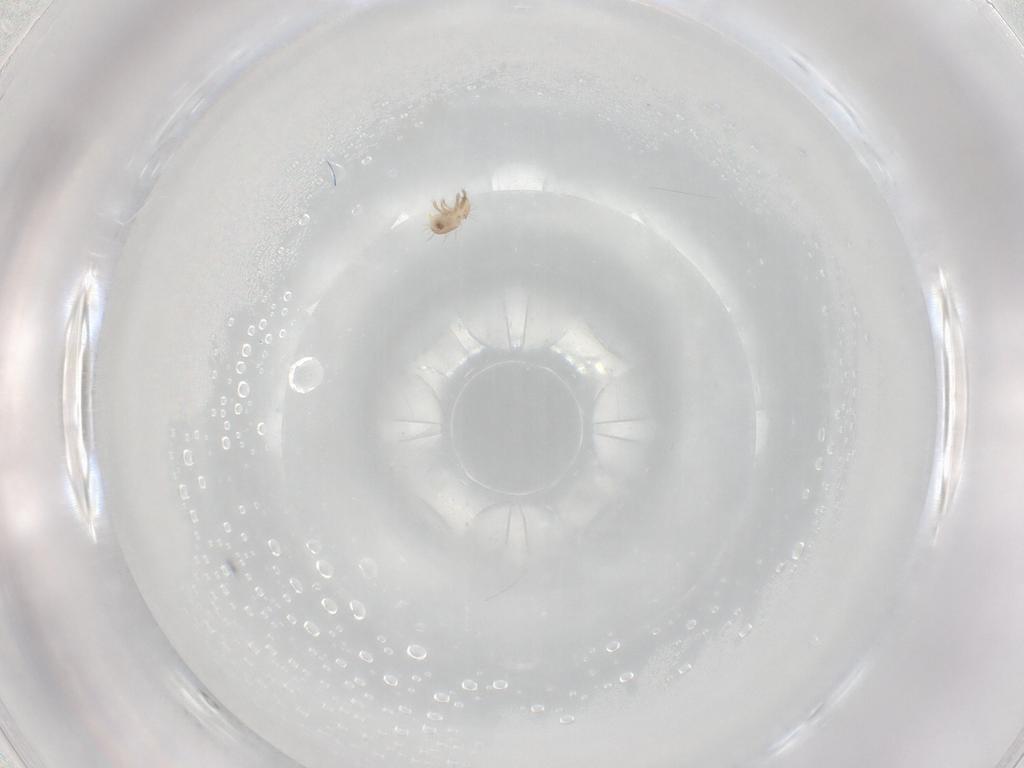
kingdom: Animalia
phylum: Arthropoda
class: Arachnida
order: Sarcoptiformes
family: Humerobatidae
